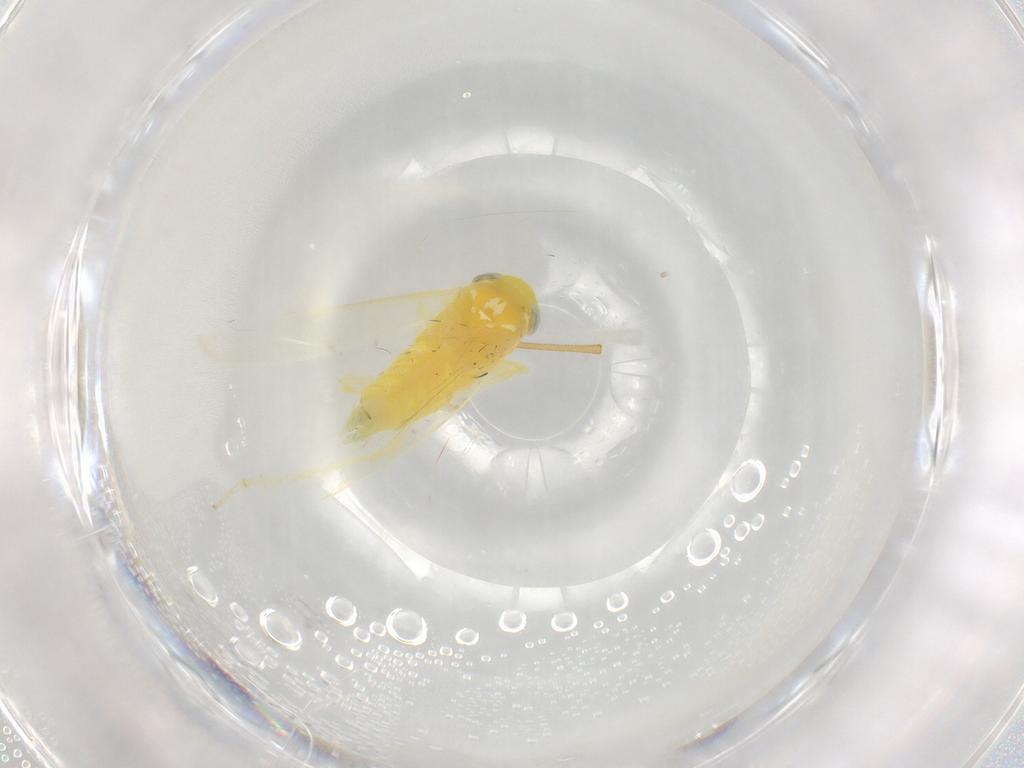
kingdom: Animalia
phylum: Arthropoda
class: Insecta
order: Hemiptera
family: Cicadellidae
